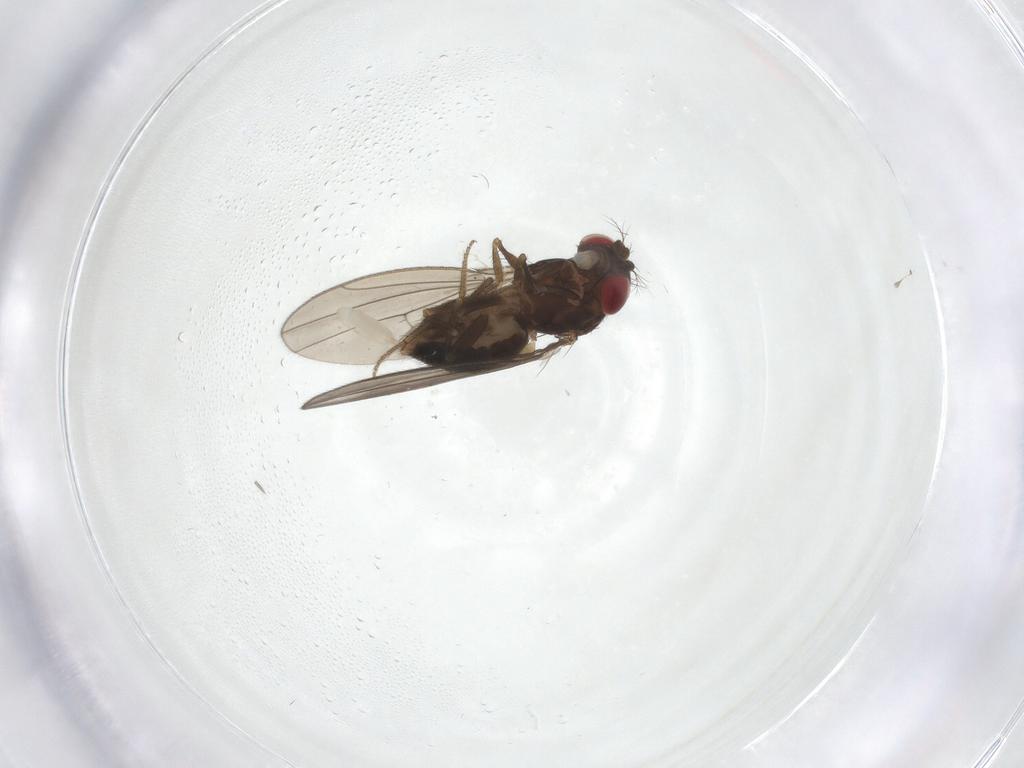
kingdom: Animalia
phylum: Arthropoda
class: Insecta
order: Diptera
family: Drosophilidae
